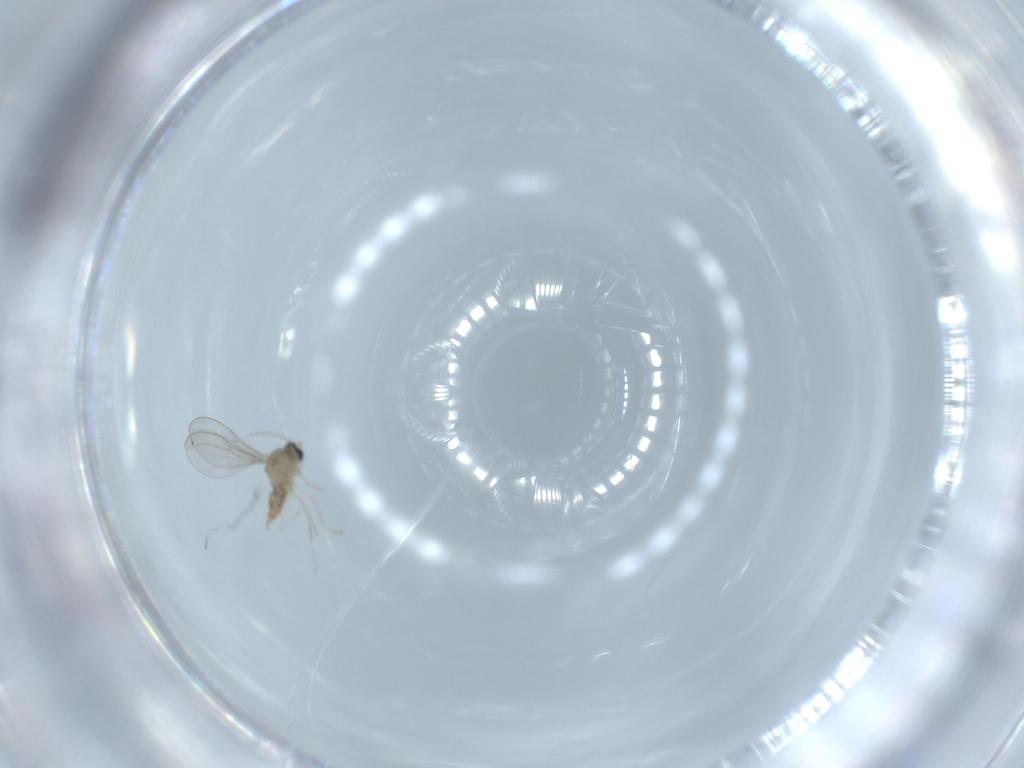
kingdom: Animalia
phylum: Arthropoda
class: Insecta
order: Diptera
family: Cecidomyiidae
